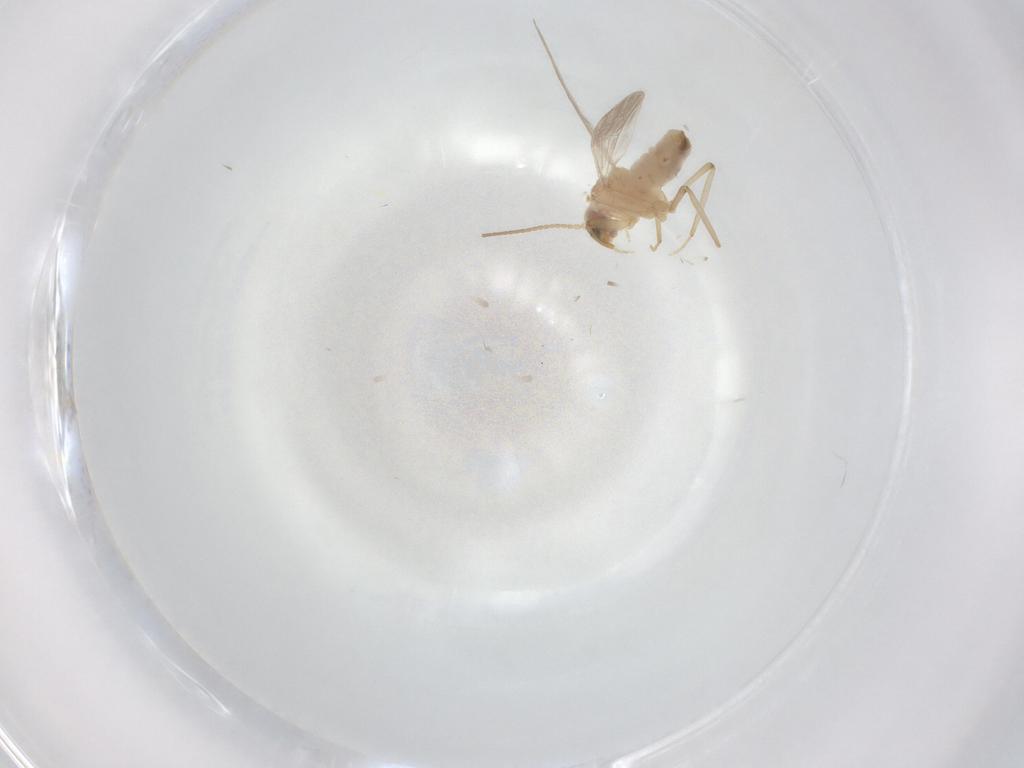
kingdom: Animalia
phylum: Arthropoda
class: Insecta
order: Neuroptera
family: Coniopterygidae
